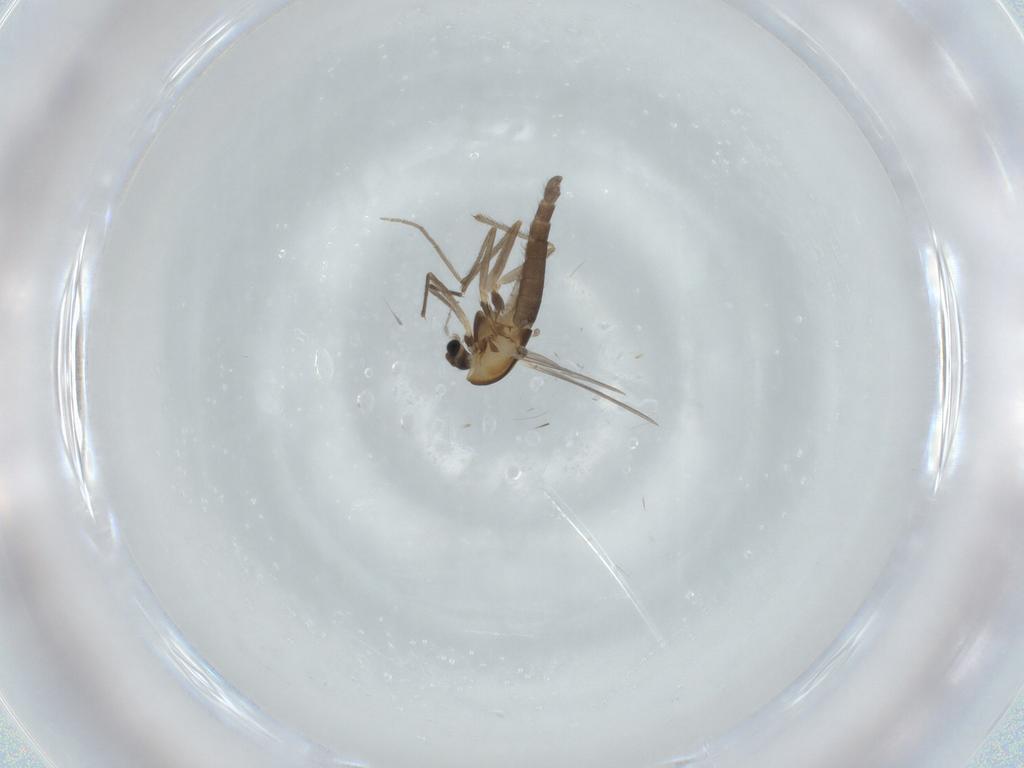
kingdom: Animalia
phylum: Arthropoda
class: Insecta
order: Diptera
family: Chironomidae
